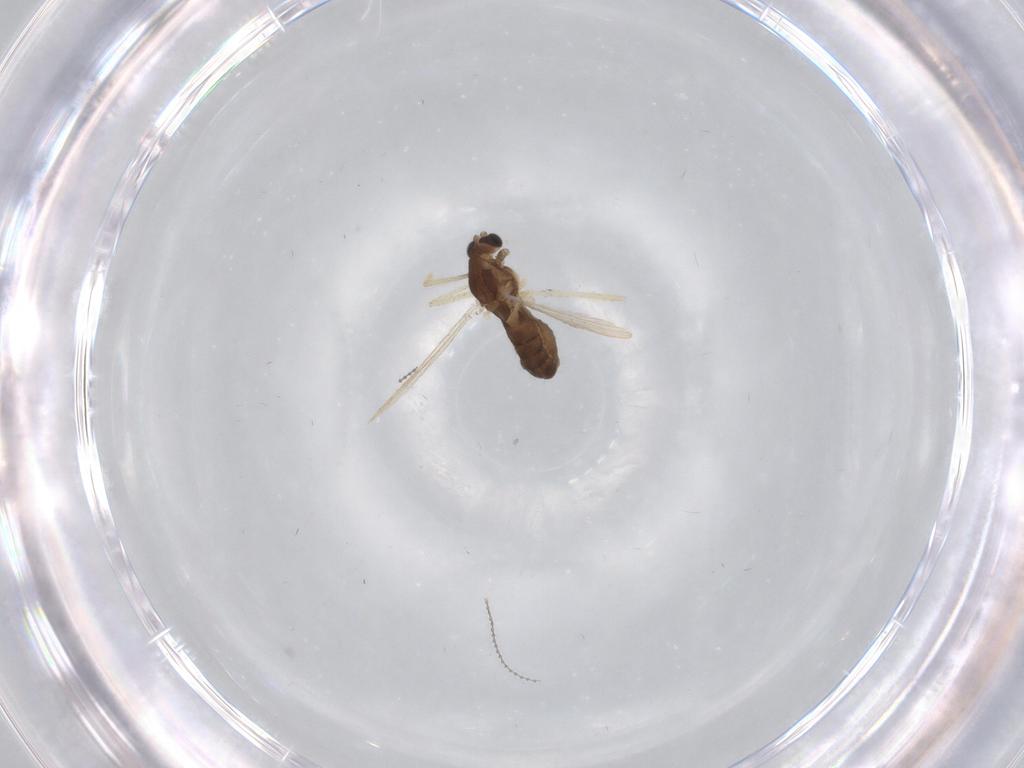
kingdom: Animalia
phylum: Arthropoda
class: Insecta
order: Diptera
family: Chironomidae
